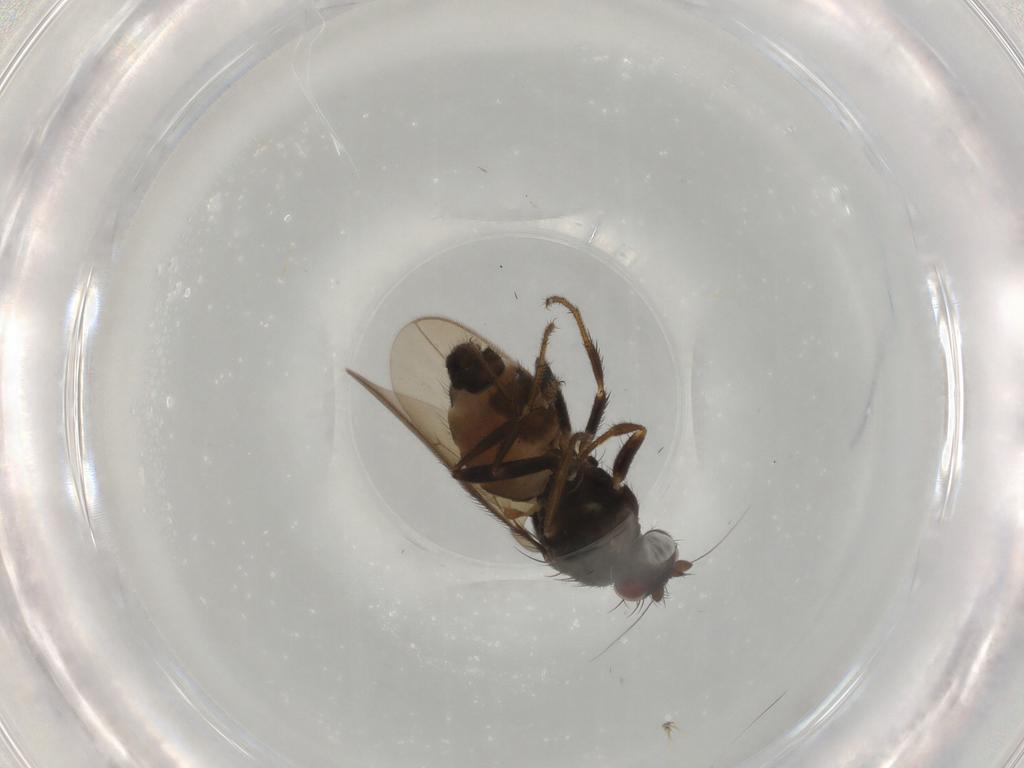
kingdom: Animalia
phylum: Arthropoda
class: Insecta
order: Diptera
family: Sphaeroceridae
